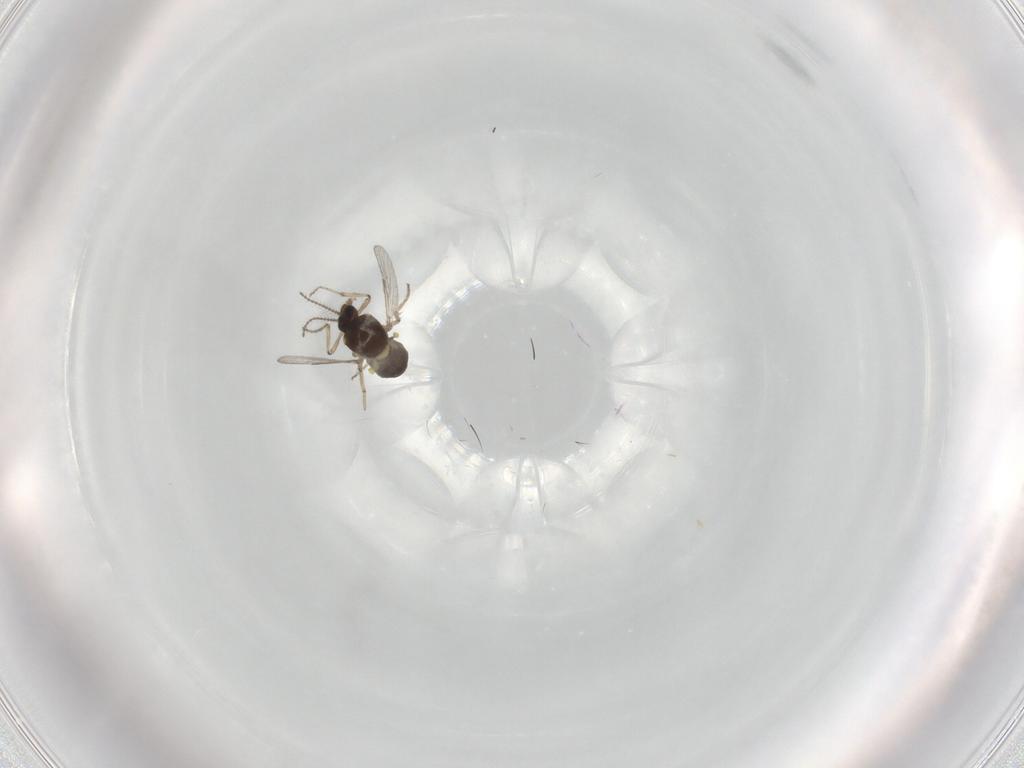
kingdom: Animalia
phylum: Arthropoda
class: Insecta
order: Diptera
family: Ceratopogonidae
